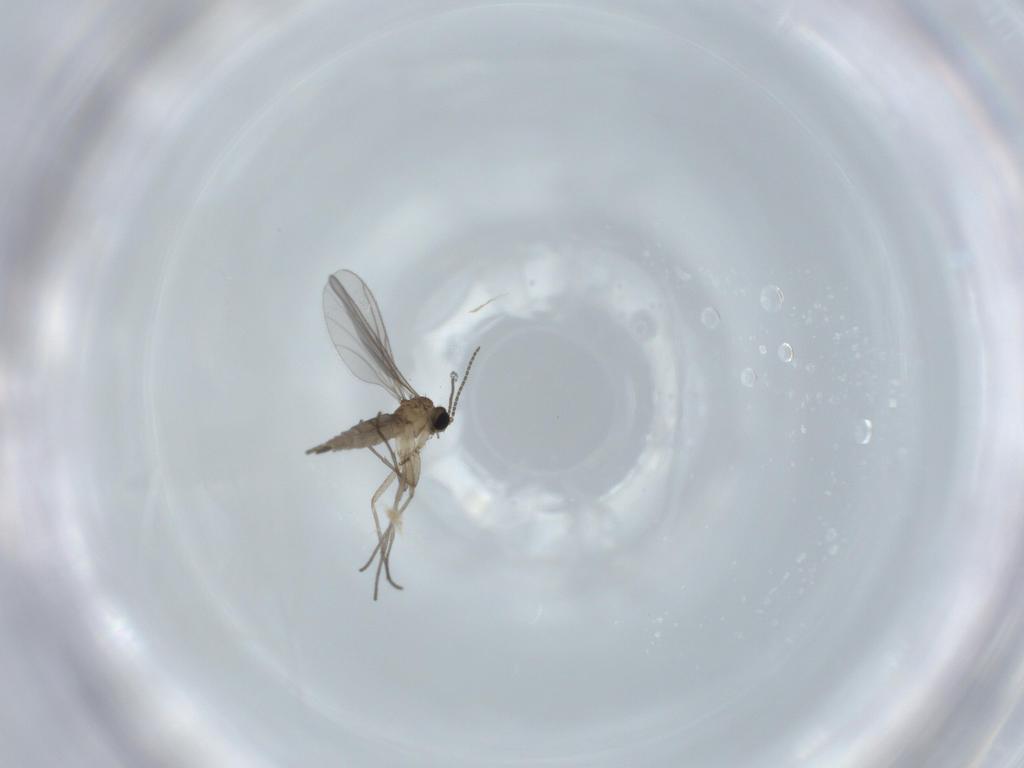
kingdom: Animalia
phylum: Arthropoda
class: Insecta
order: Diptera
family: Sciaridae
